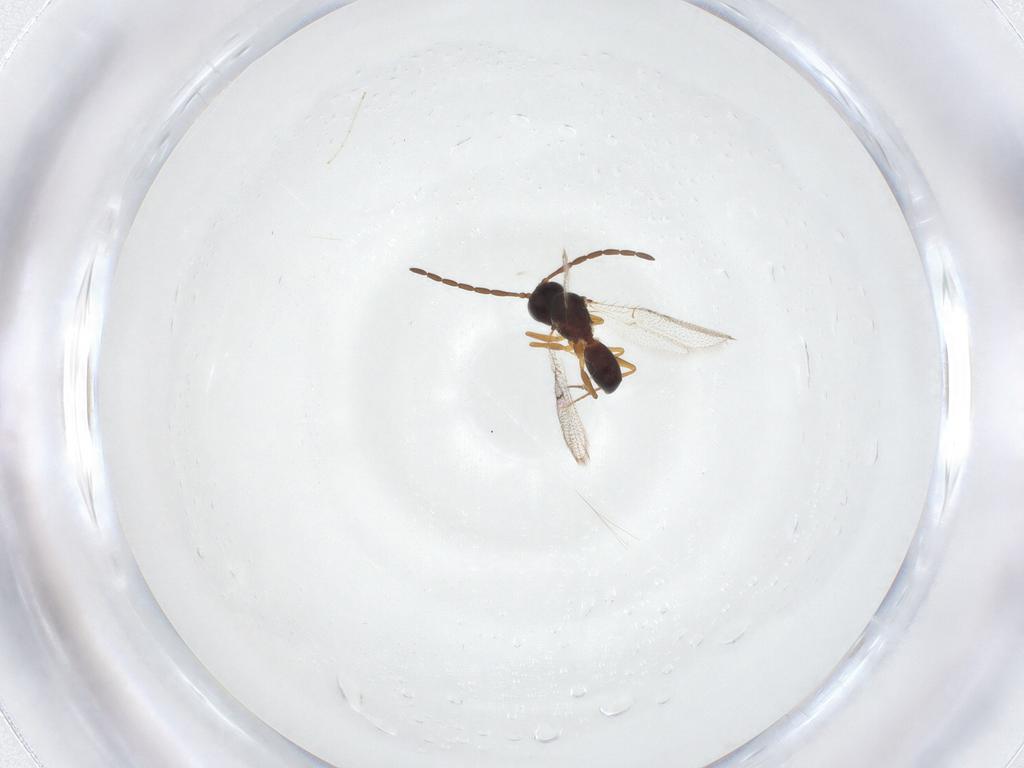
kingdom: Animalia
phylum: Arthropoda
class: Insecta
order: Hymenoptera
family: Figitidae
